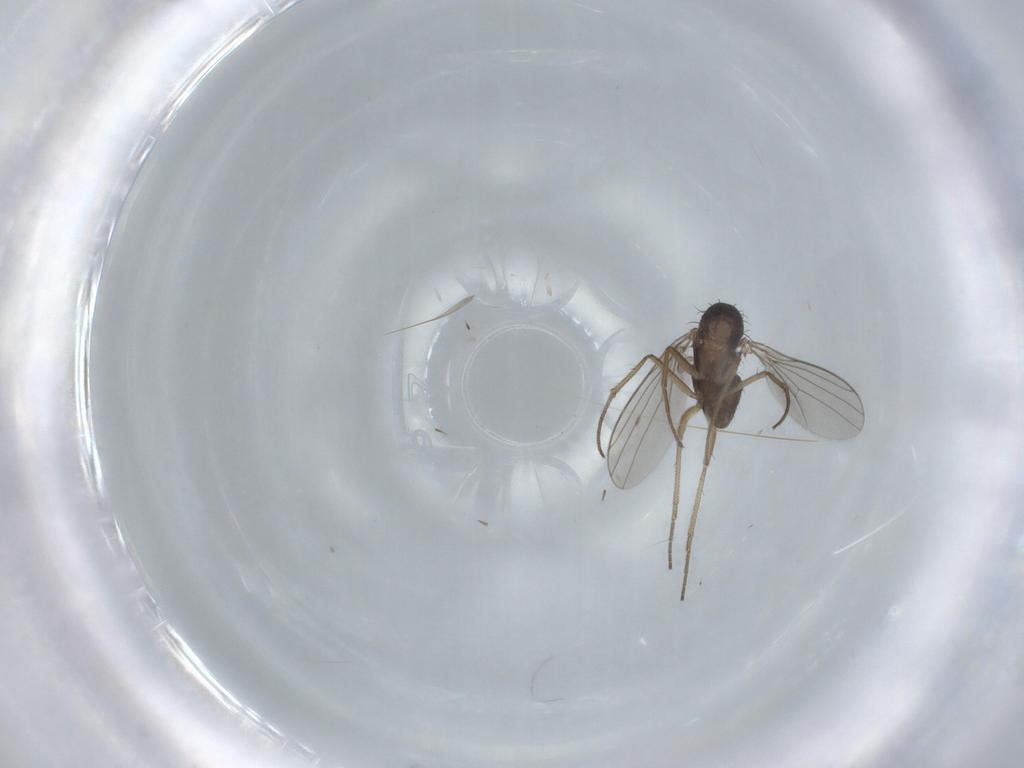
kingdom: Animalia
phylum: Arthropoda
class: Insecta
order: Diptera
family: Dolichopodidae
